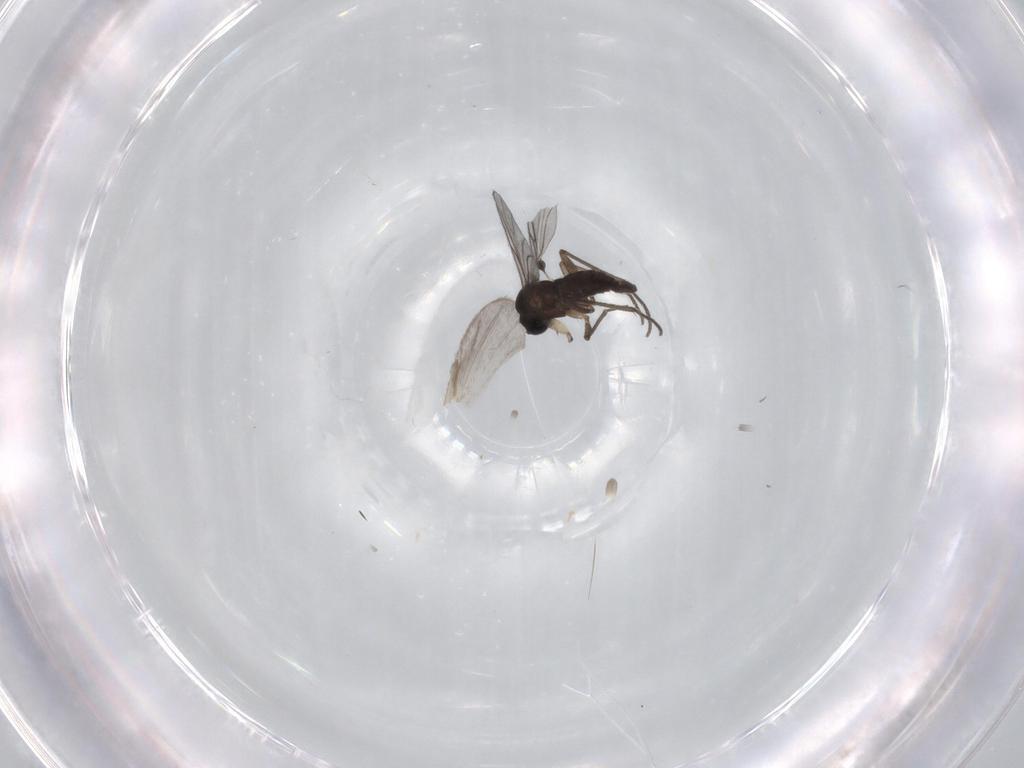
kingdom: Animalia
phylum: Arthropoda
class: Insecta
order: Diptera
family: Sciaridae
